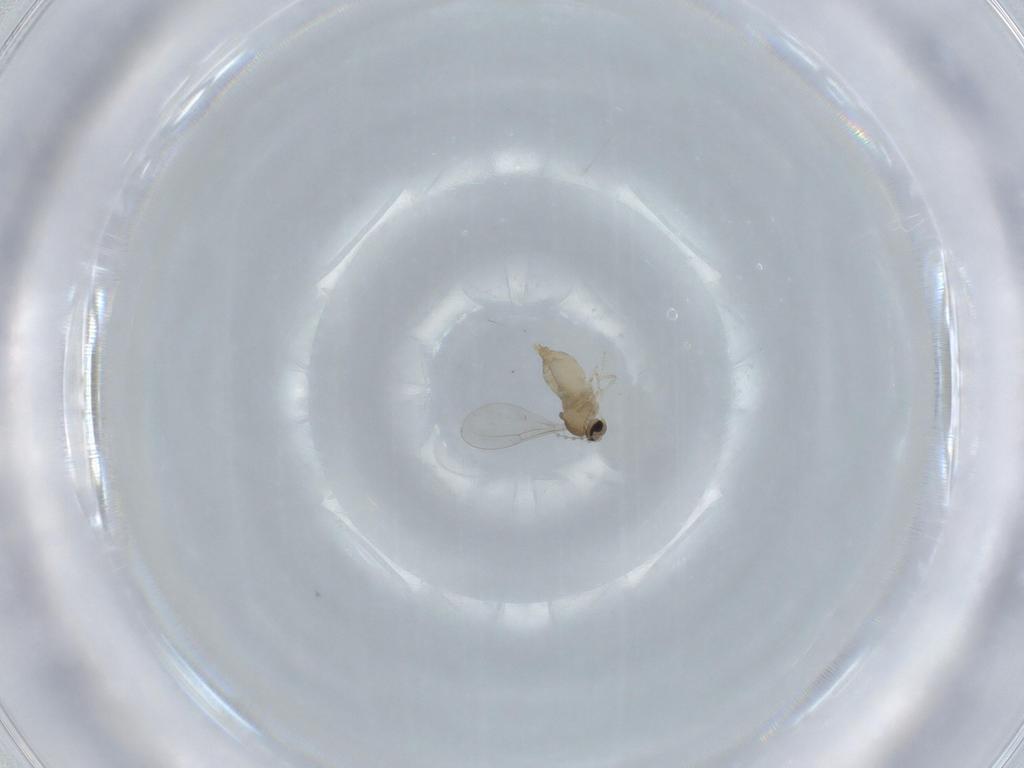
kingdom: Animalia
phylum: Arthropoda
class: Insecta
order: Diptera
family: Cecidomyiidae
